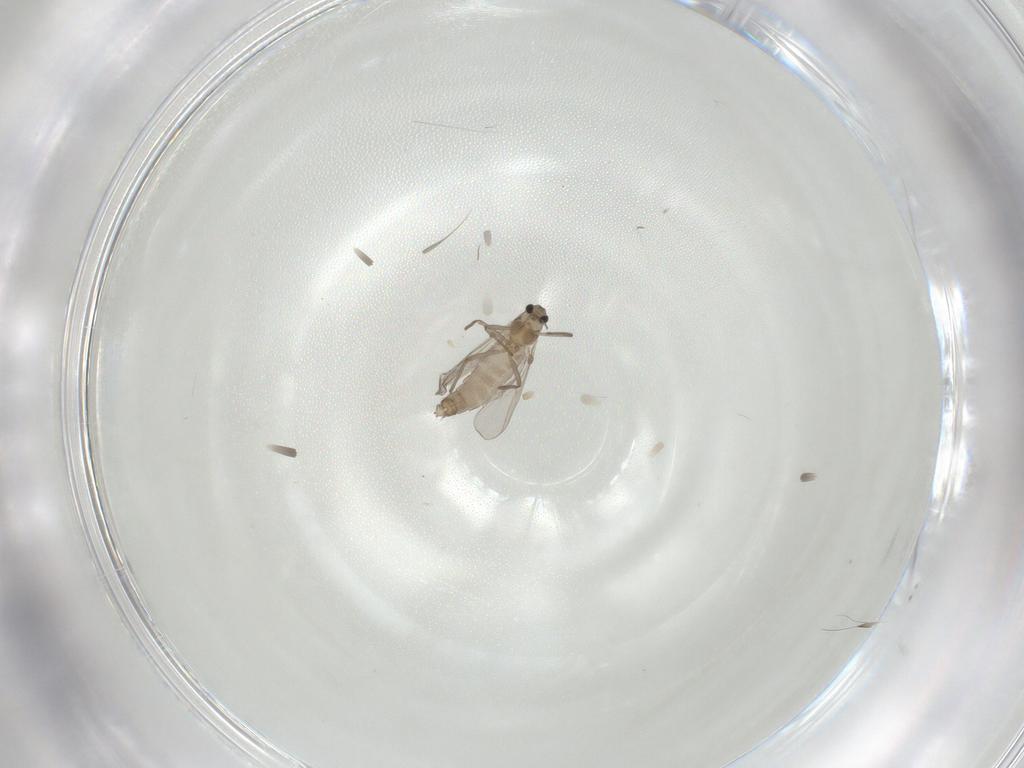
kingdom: Animalia
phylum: Arthropoda
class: Insecta
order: Diptera
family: Chironomidae
